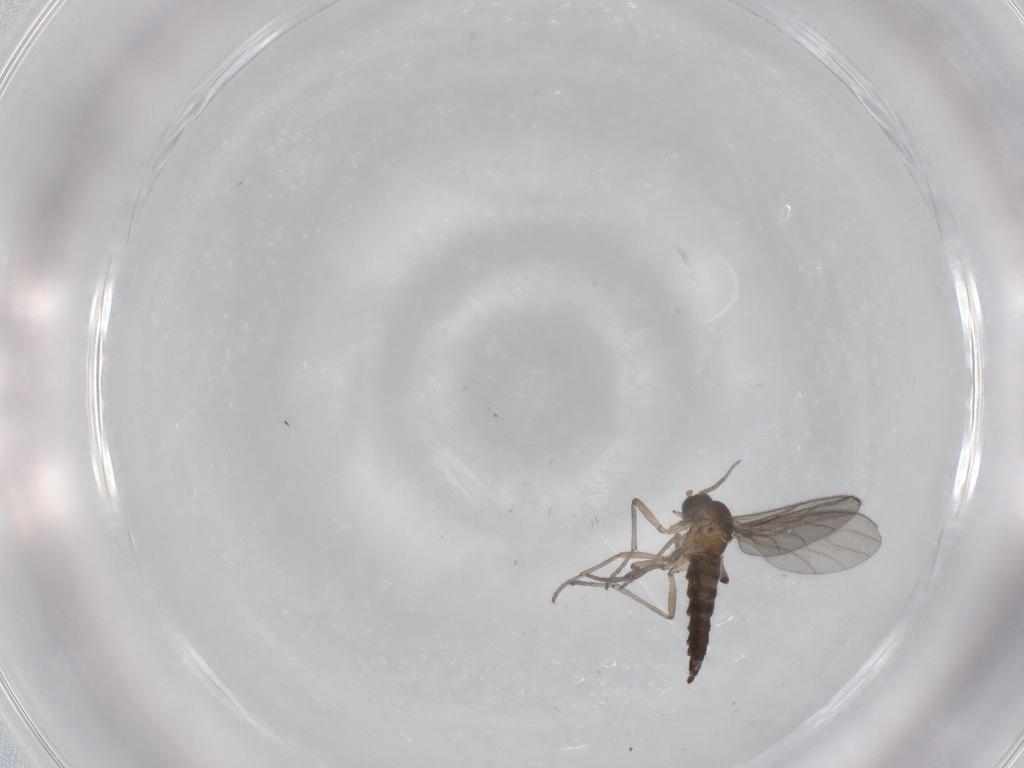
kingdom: Animalia
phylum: Arthropoda
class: Insecta
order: Diptera
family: Sciaridae
